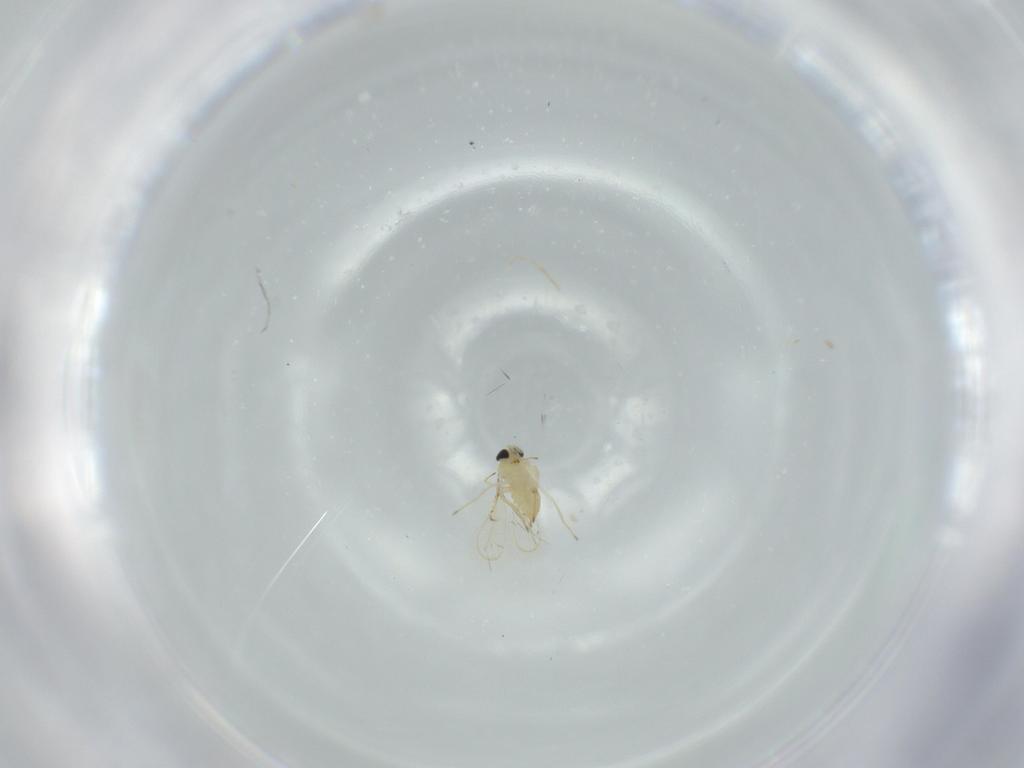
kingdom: Animalia
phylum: Arthropoda
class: Insecta
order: Hymenoptera
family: Trichogrammatidae
